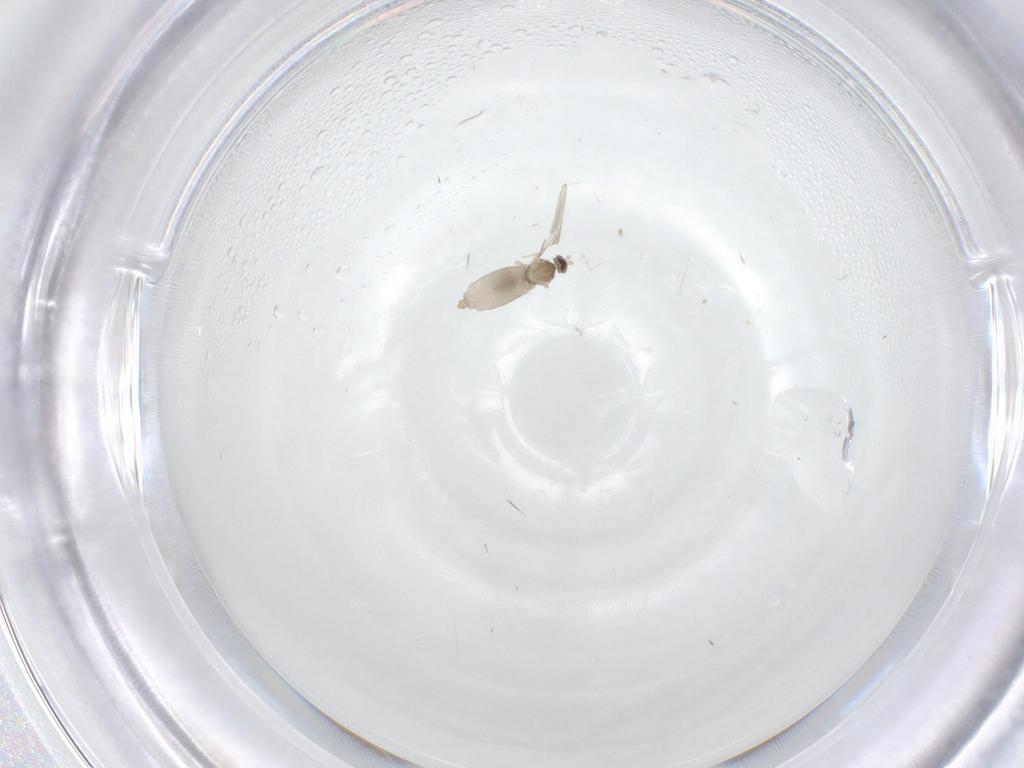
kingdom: Animalia
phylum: Arthropoda
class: Insecta
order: Diptera
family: Cecidomyiidae
